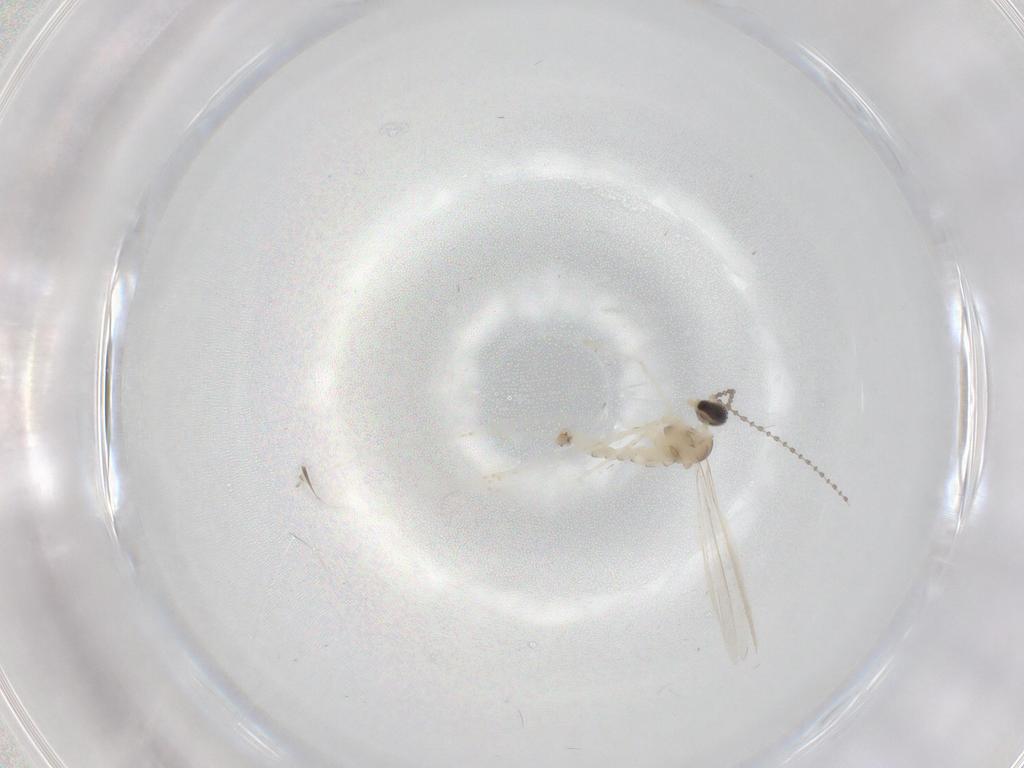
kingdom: Animalia
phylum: Arthropoda
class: Insecta
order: Diptera
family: Cecidomyiidae
